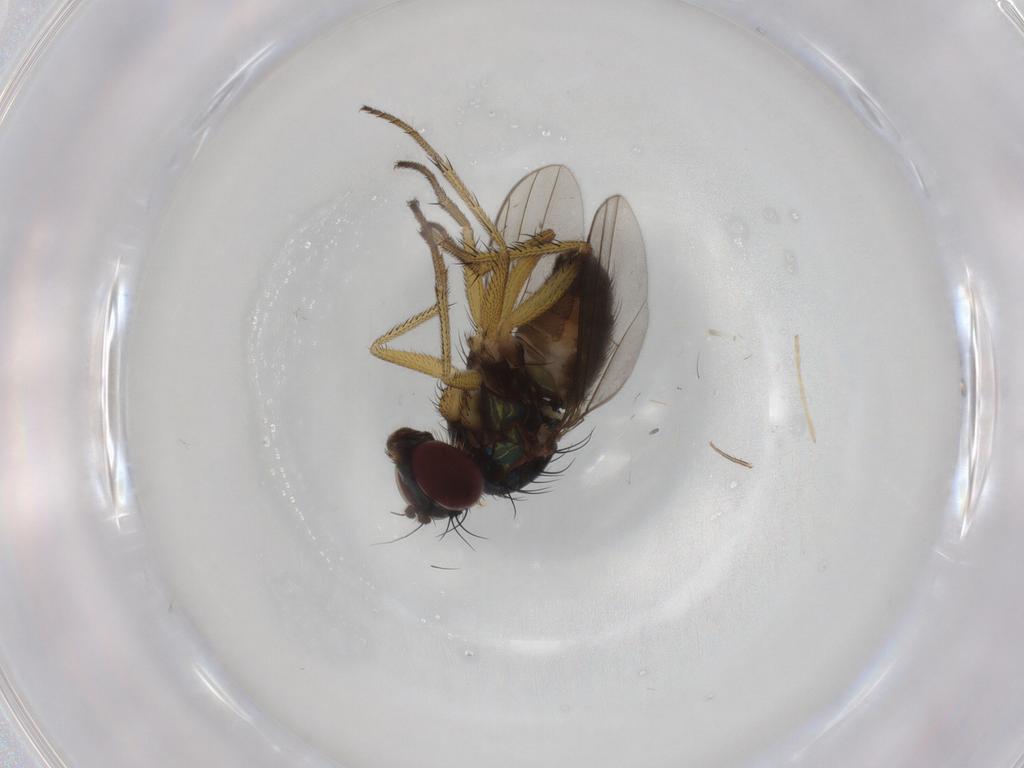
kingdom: Animalia
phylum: Arthropoda
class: Insecta
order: Diptera
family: Dolichopodidae
